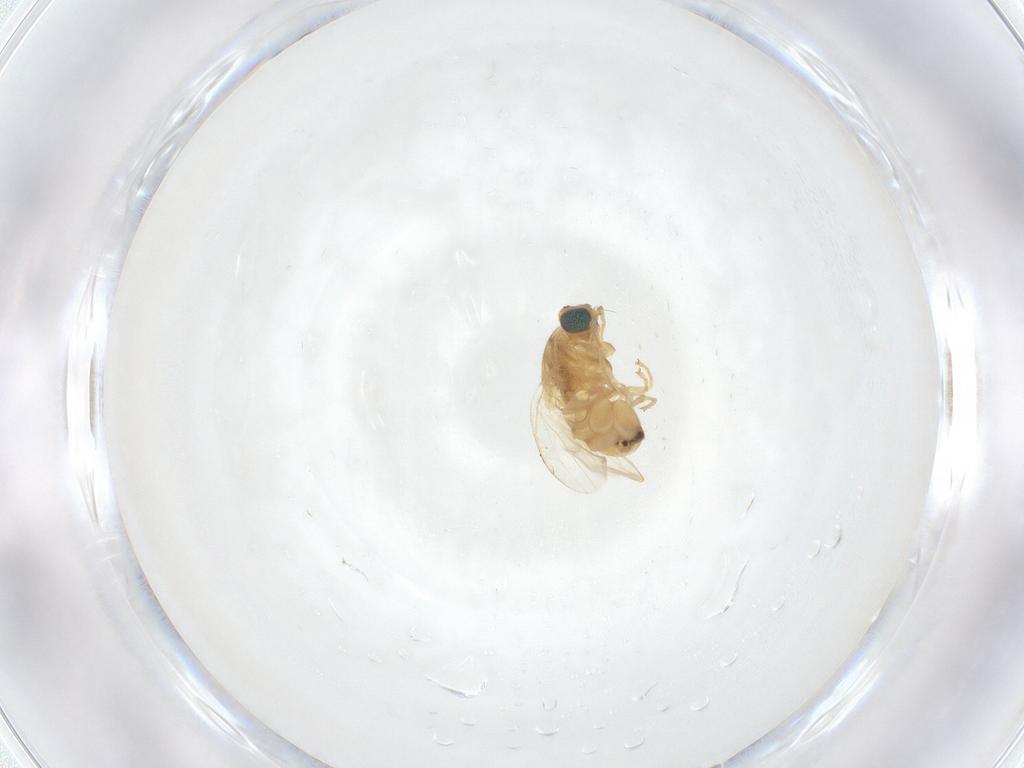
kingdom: Animalia
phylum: Arthropoda
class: Insecta
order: Diptera
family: Chyromyidae
